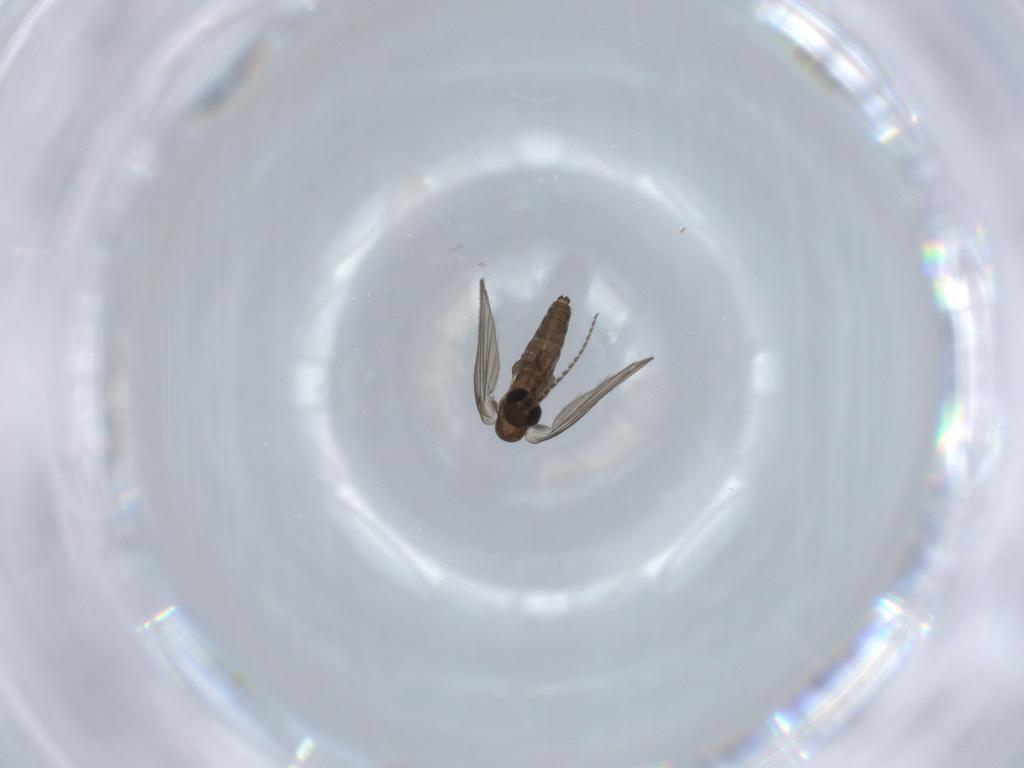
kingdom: Animalia
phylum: Arthropoda
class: Insecta
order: Diptera
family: Psychodidae
